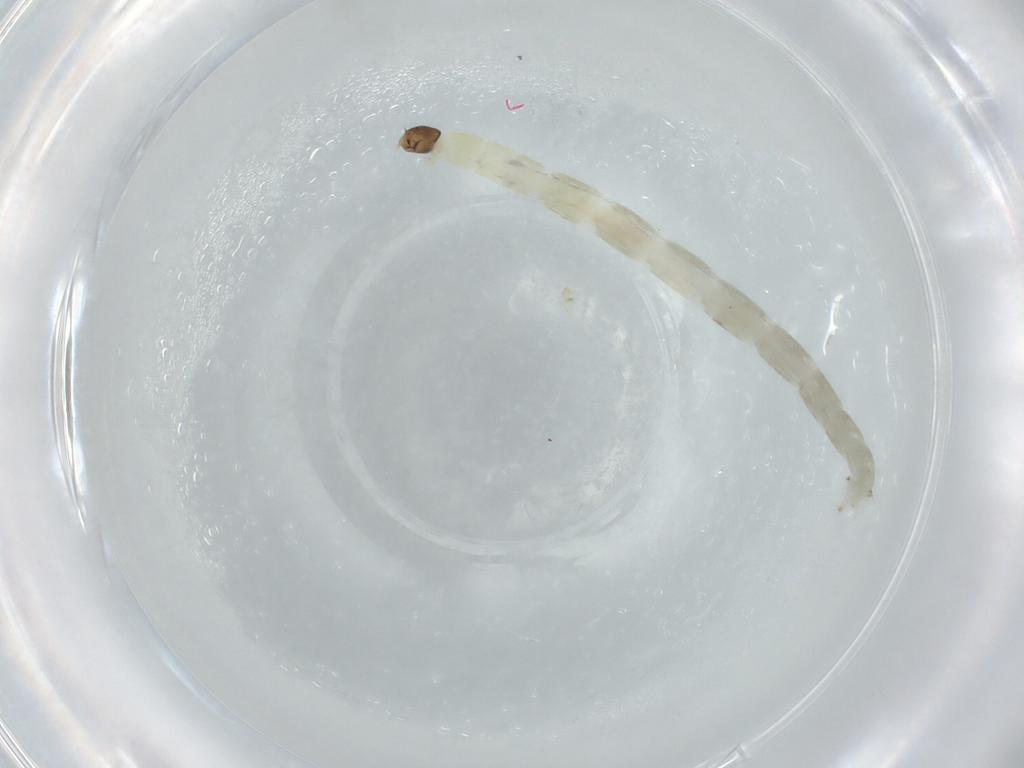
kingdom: Animalia
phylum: Arthropoda
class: Insecta
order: Diptera
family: Chironomidae
